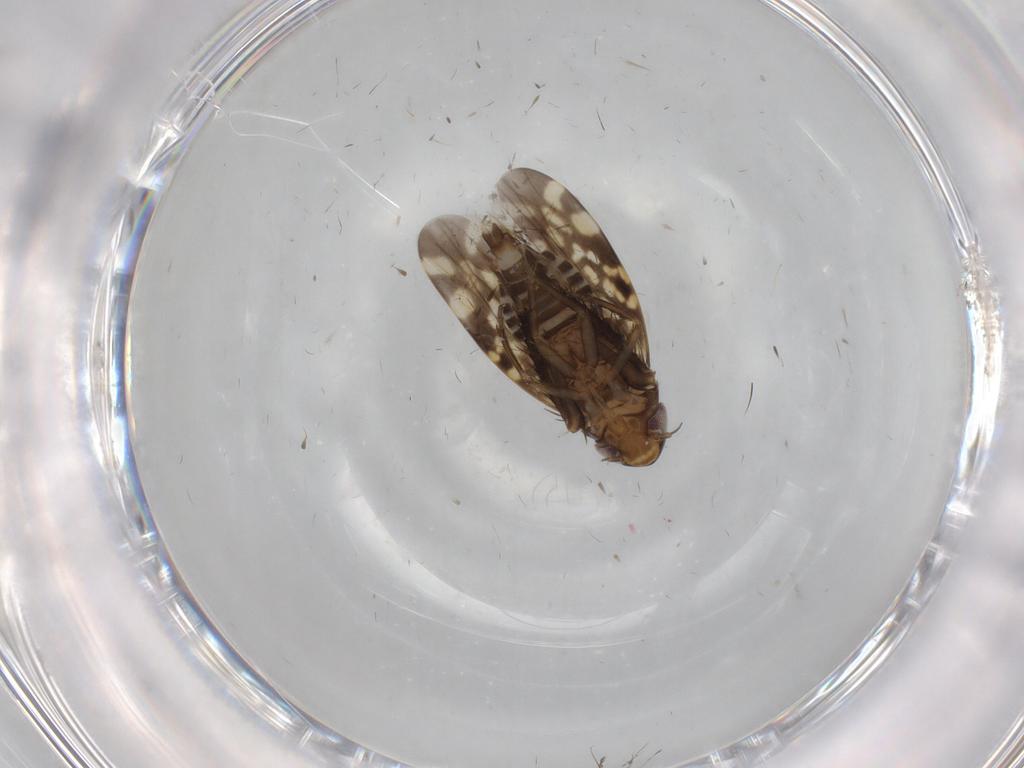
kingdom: Animalia
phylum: Arthropoda
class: Insecta
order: Hemiptera
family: Cicadellidae
